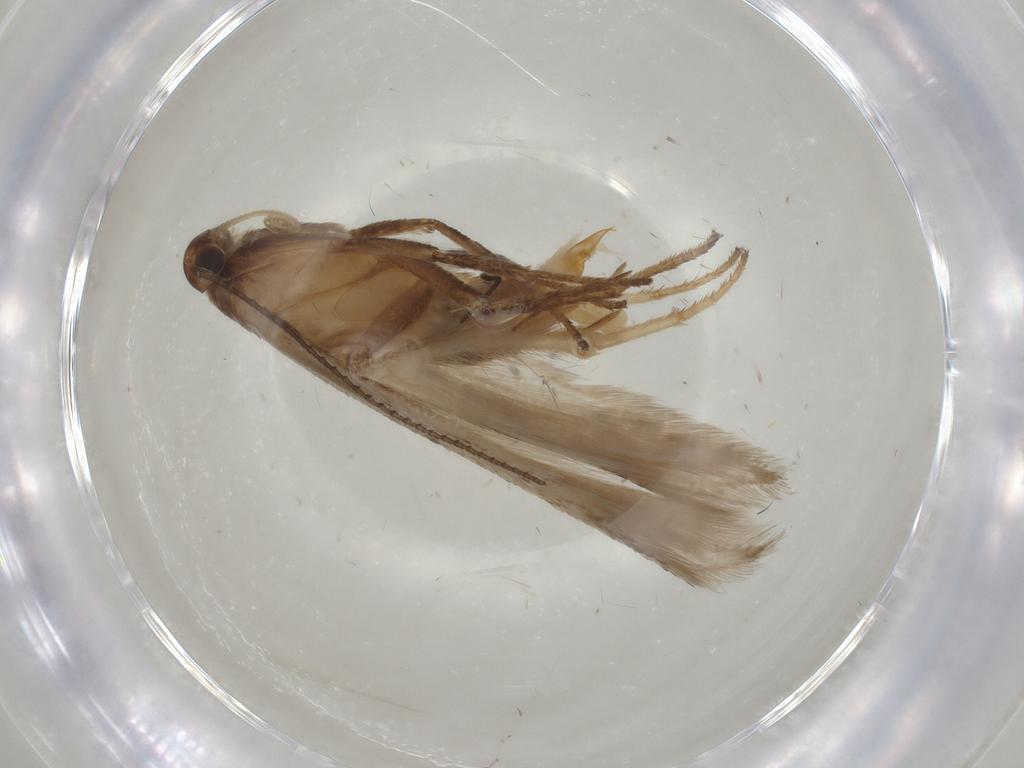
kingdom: Animalia
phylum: Arthropoda
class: Insecta
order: Lepidoptera
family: Gelechiidae
